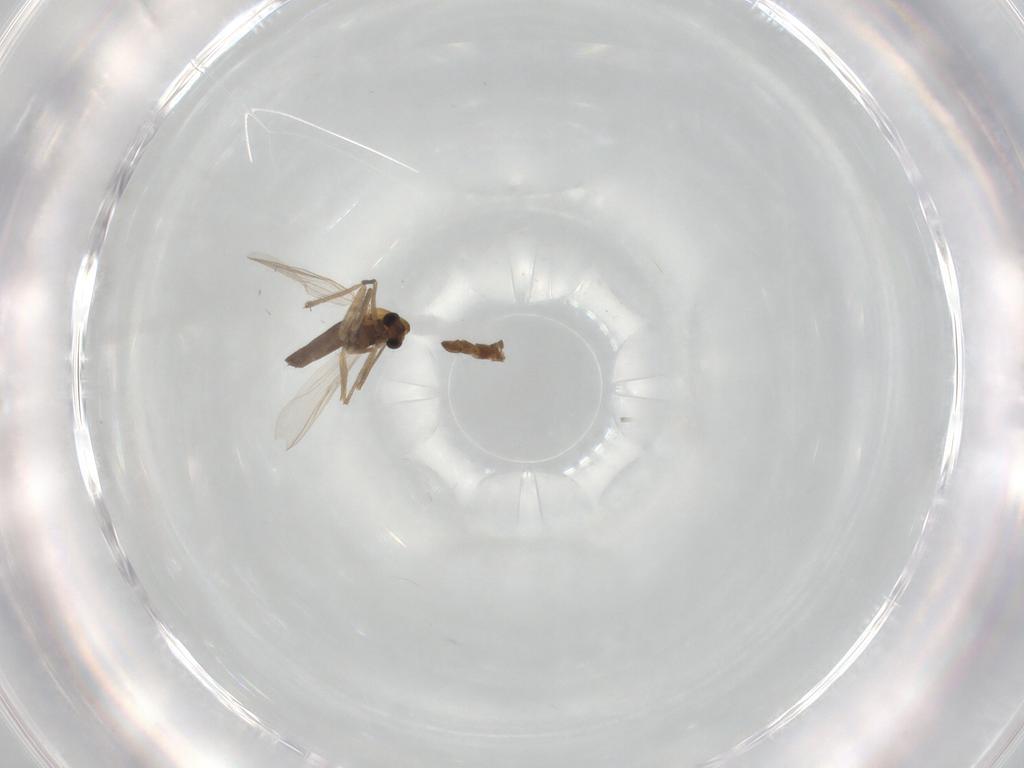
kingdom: Animalia
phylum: Arthropoda
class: Insecta
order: Diptera
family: Chironomidae
